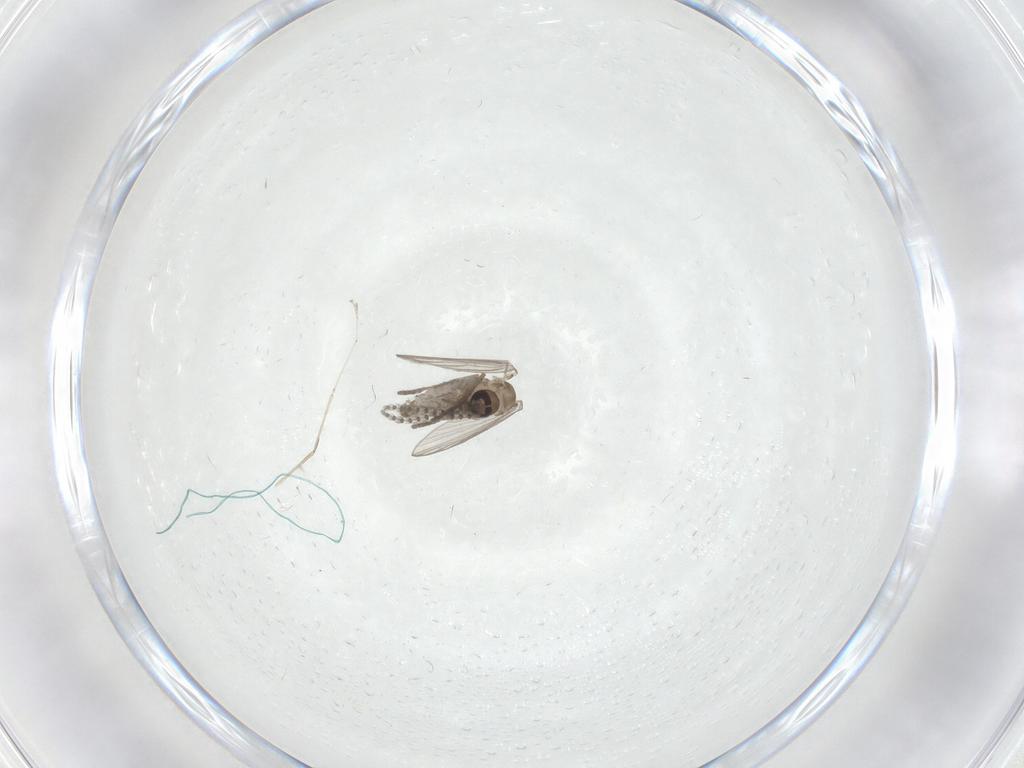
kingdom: Animalia
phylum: Arthropoda
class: Insecta
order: Diptera
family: Psychodidae
